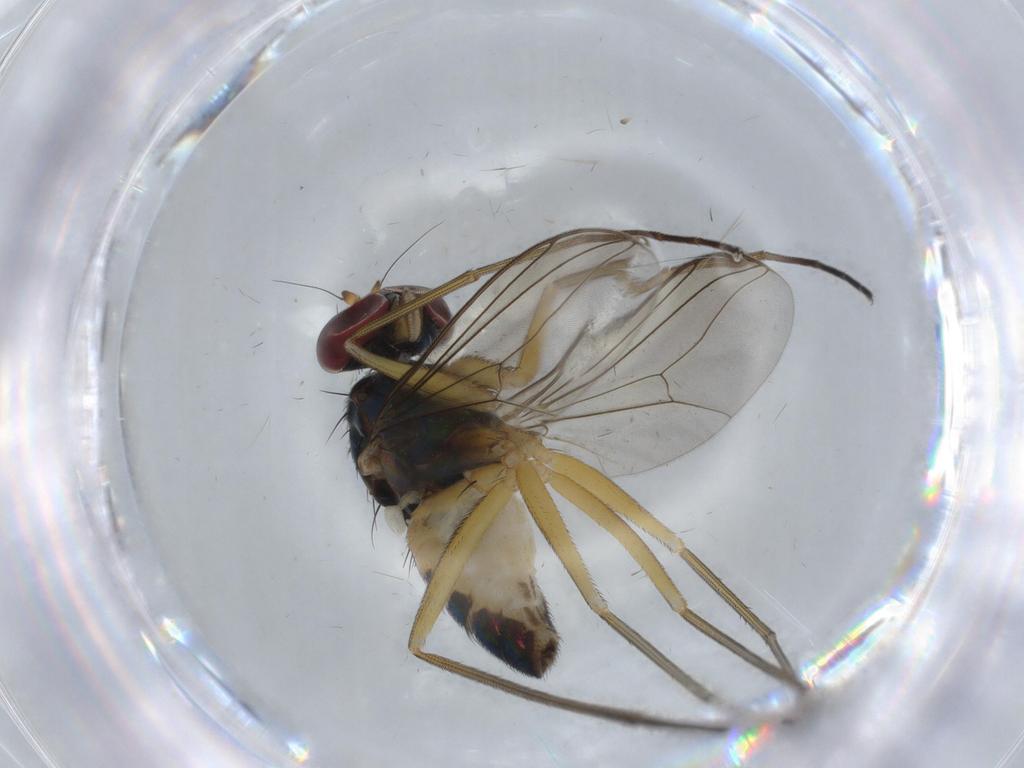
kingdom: Animalia
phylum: Arthropoda
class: Insecta
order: Diptera
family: Dolichopodidae
